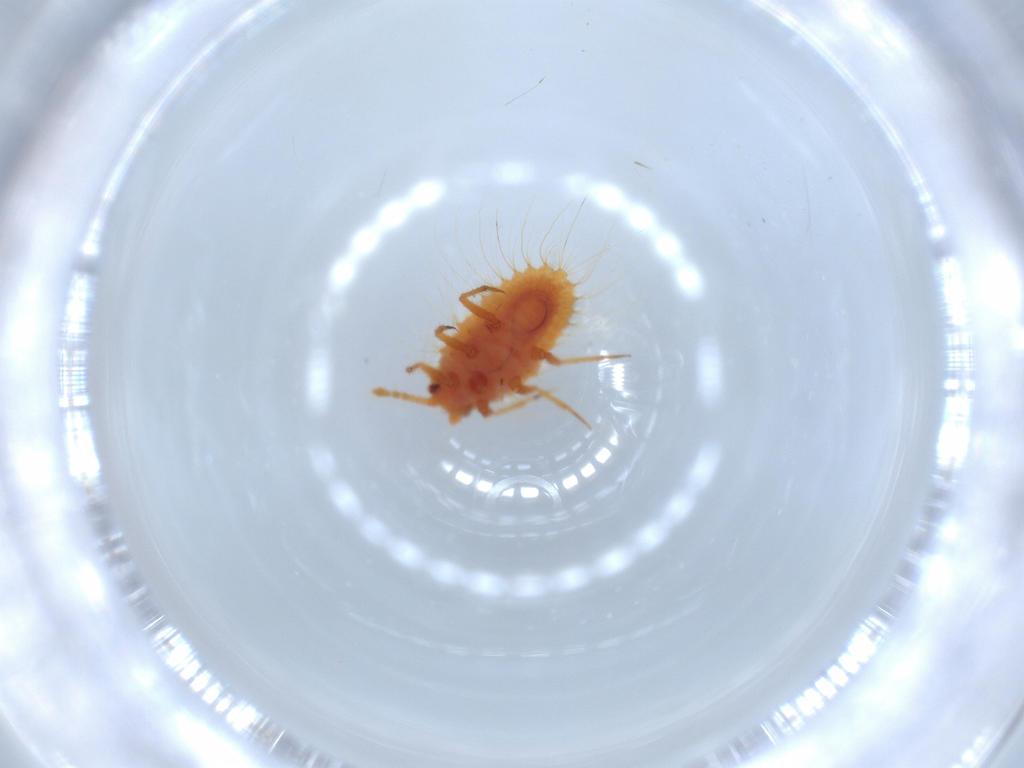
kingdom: Animalia
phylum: Arthropoda
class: Insecta
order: Hemiptera
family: Coccoidea_incertae_sedis
